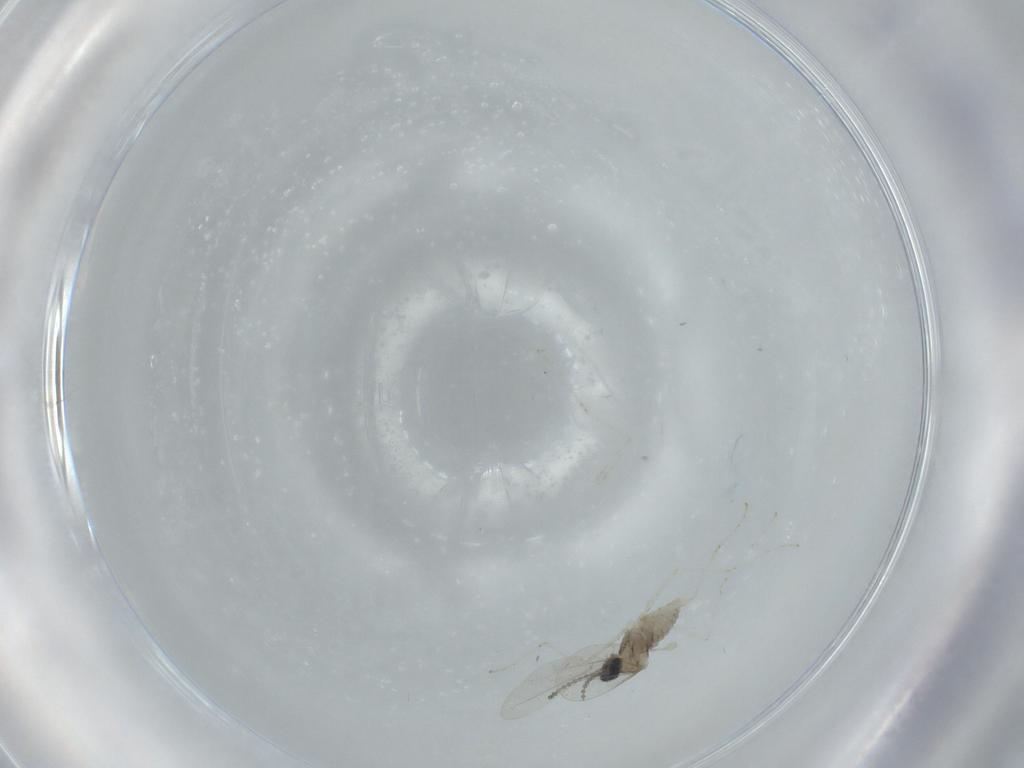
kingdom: Animalia
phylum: Arthropoda
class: Insecta
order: Diptera
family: Cecidomyiidae
